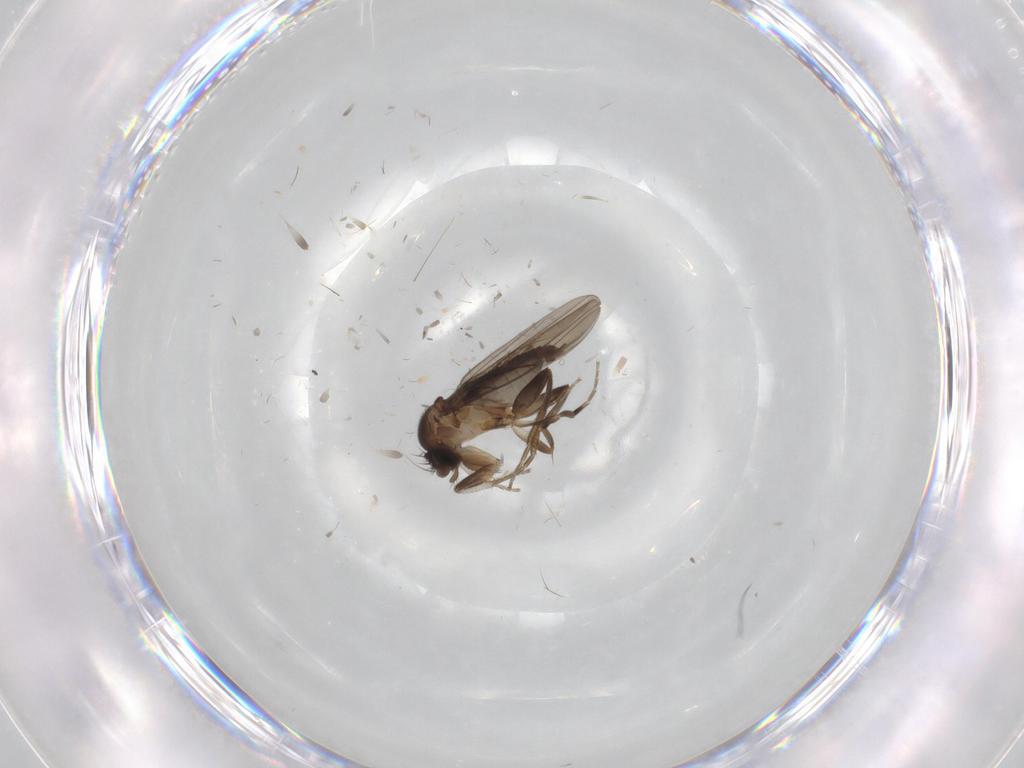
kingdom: Animalia
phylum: Arthropoda
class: Insecta
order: Diptera
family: Phoridae
